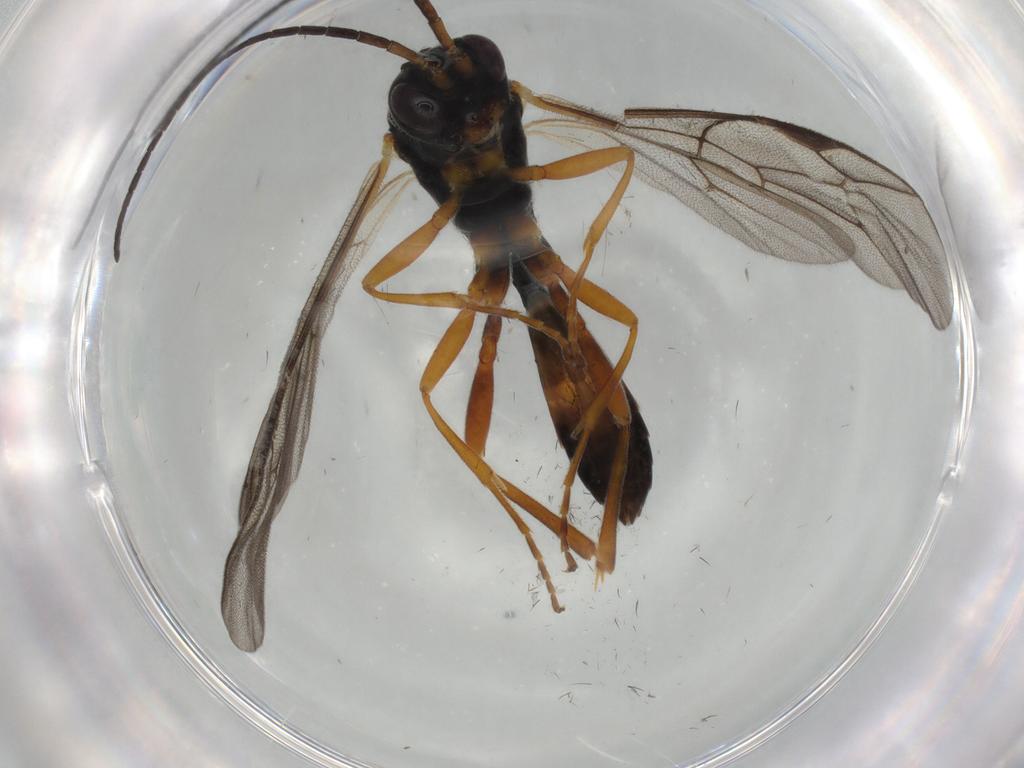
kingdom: Animalia
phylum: Arthropoda
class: Insecta
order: Hymenoptera
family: Ichneumonidae
